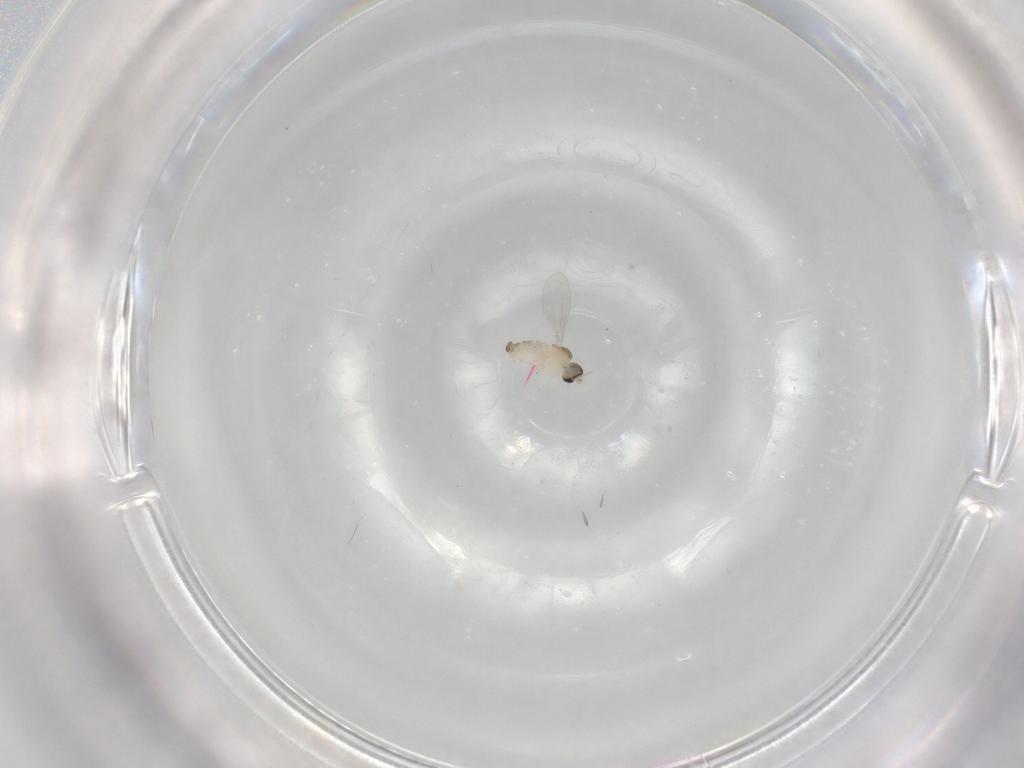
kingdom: Animalia
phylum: Arthropoda
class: Insecta
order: Diptera
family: Cecidomyiidae
